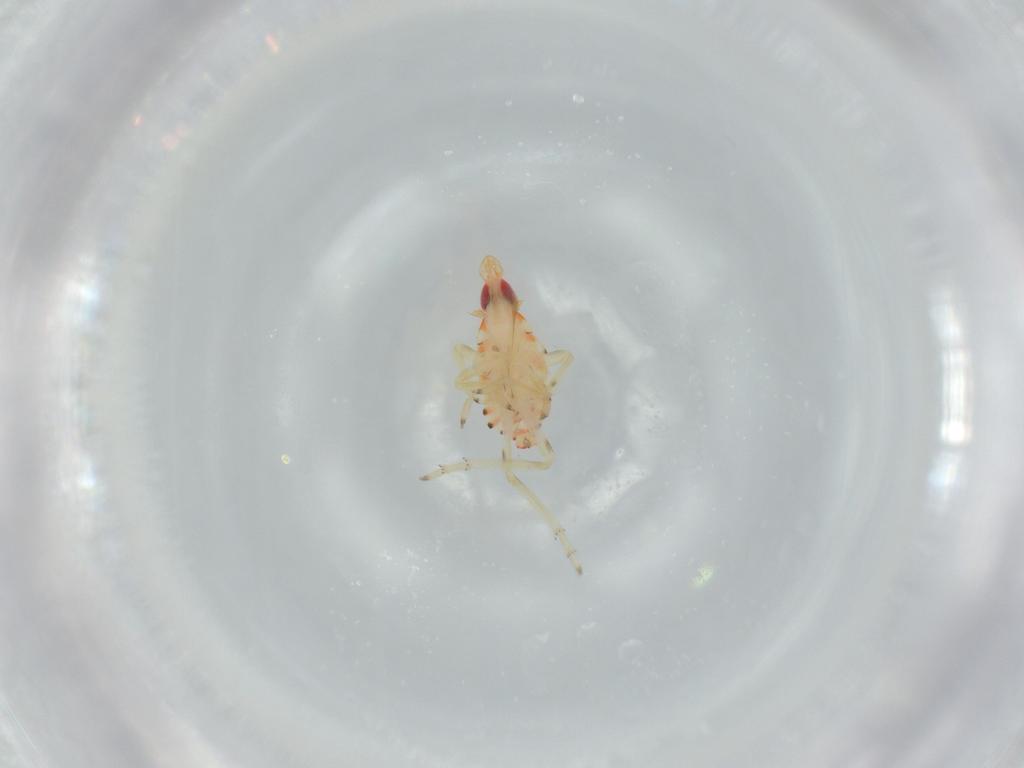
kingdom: Animalia
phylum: Arthropoda
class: Insecta
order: Hemiptera
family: Tropiduchidae
